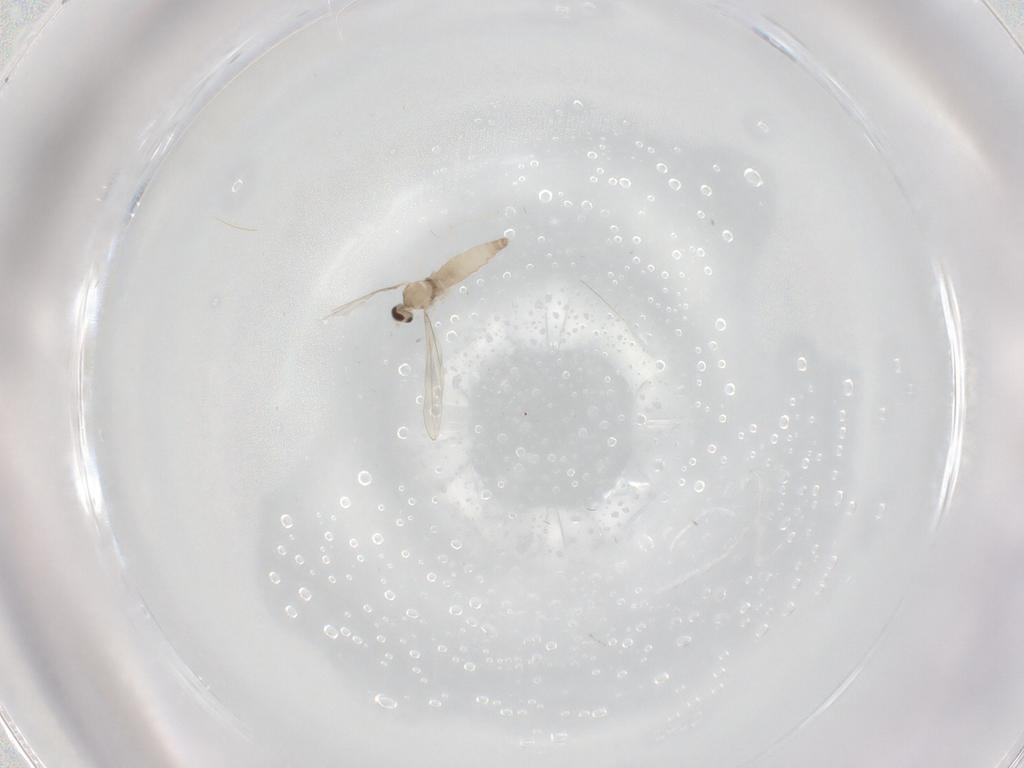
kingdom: Animalia
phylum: Arthropoda
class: Insecta
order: Diptera
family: Cecidomyiidae
